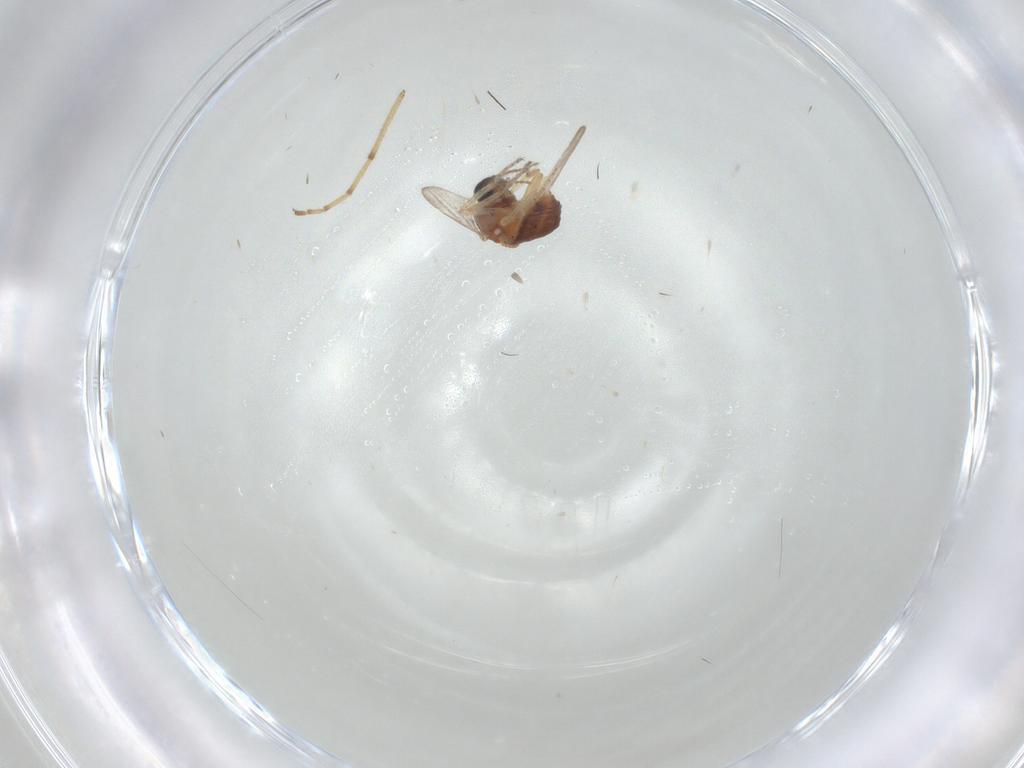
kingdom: Animalia
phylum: Arthropoda
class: Insecta
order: Diptera
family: Ceratopogonidae
